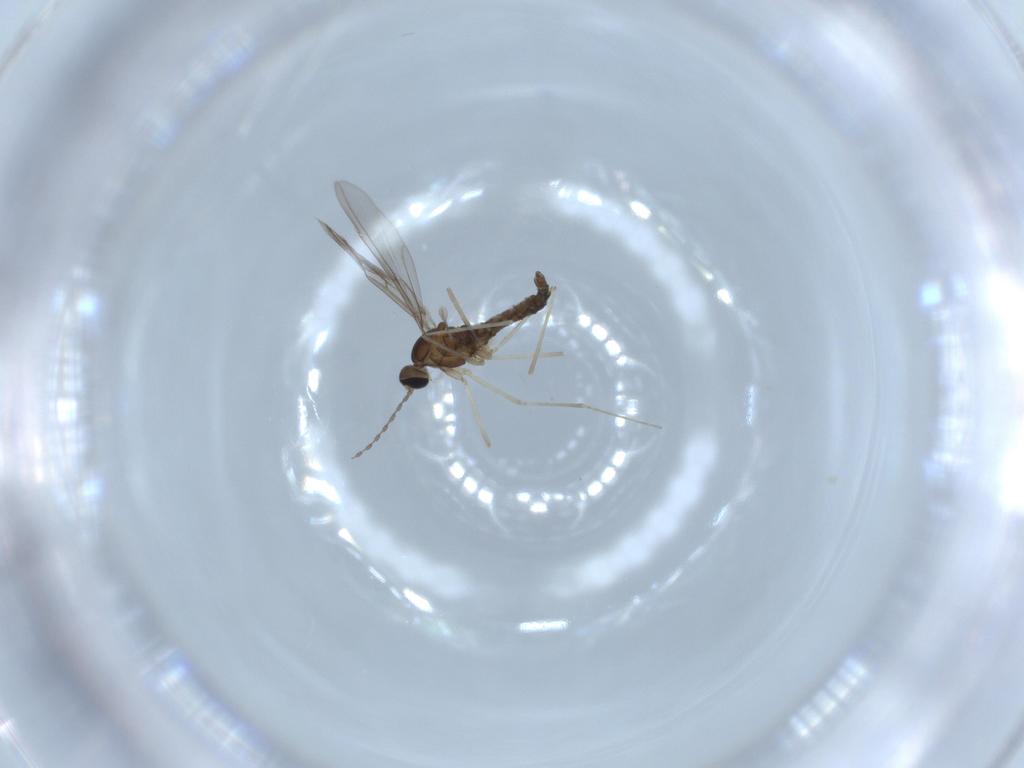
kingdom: Animalia
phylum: Arthropoda
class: Insecta
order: Diptera
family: Cecidomyiidae
